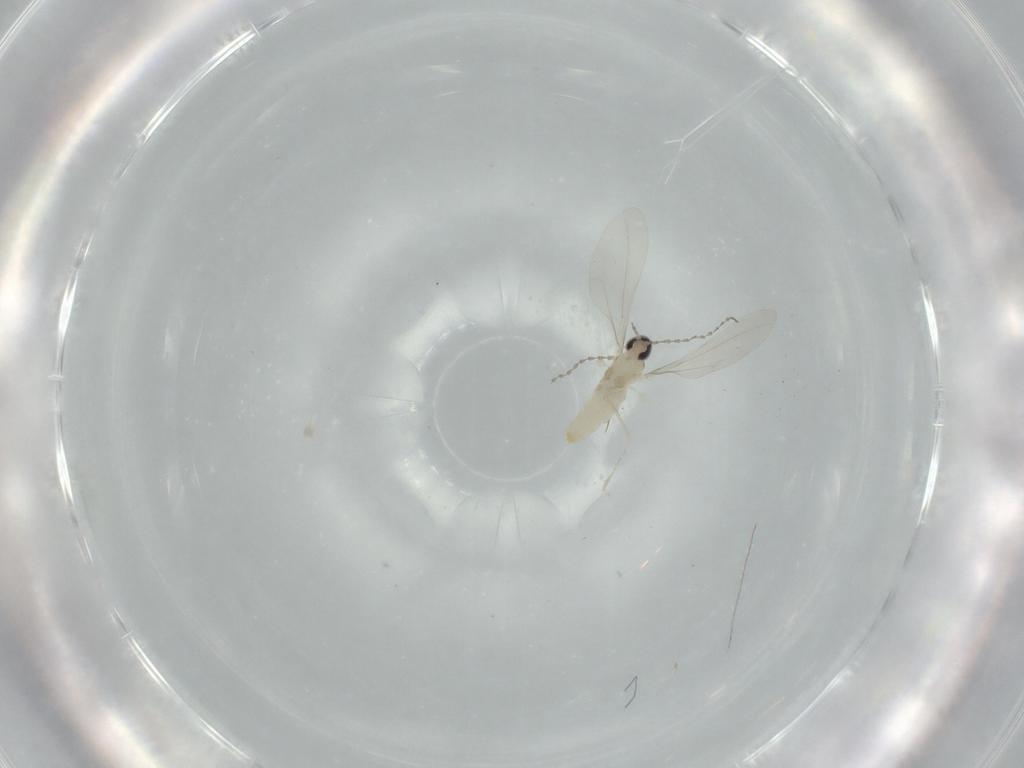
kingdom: Animalia
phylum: Arthropoda
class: Insecta
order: Diptera
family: Cecidomyiidae
